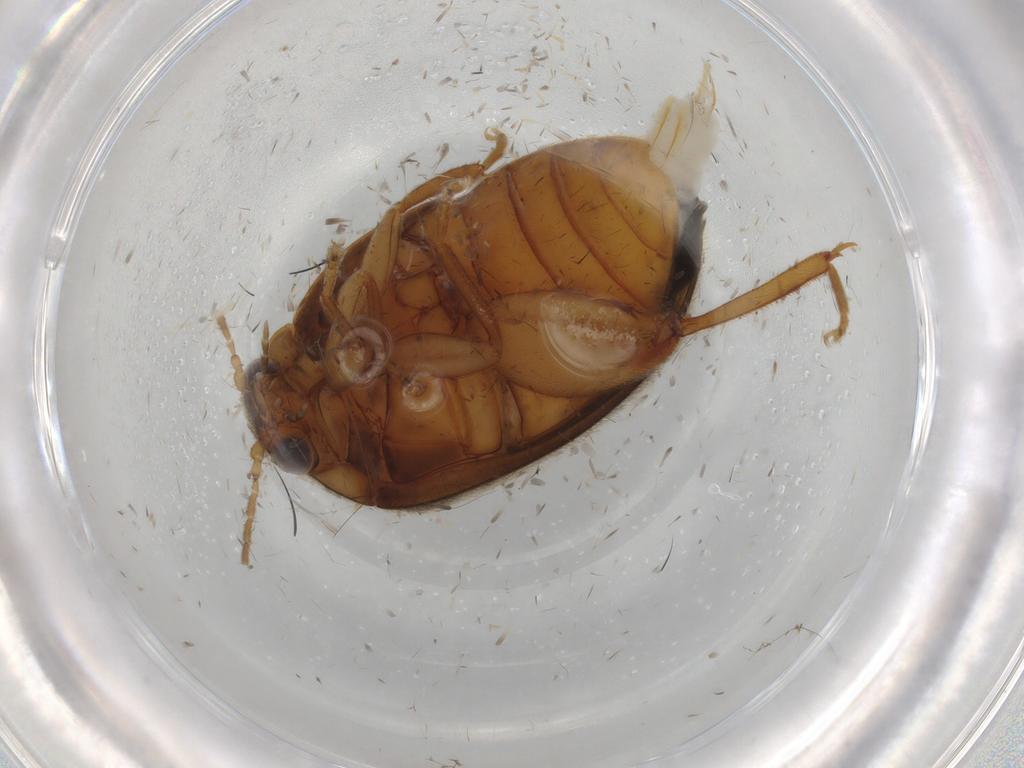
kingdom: Animalia
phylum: Arthropoda
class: Insecta
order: Coleoptera
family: Scirtidae
